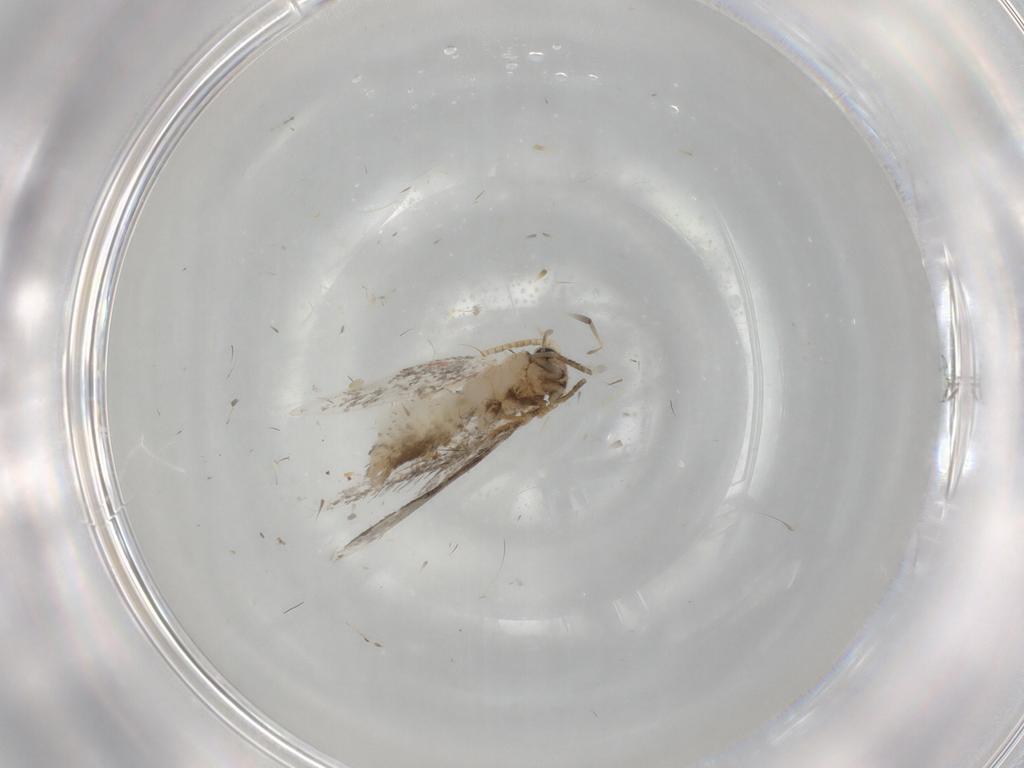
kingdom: Animalia
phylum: Arthropoda
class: Insecta
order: Lepidoptera
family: Tineidae
